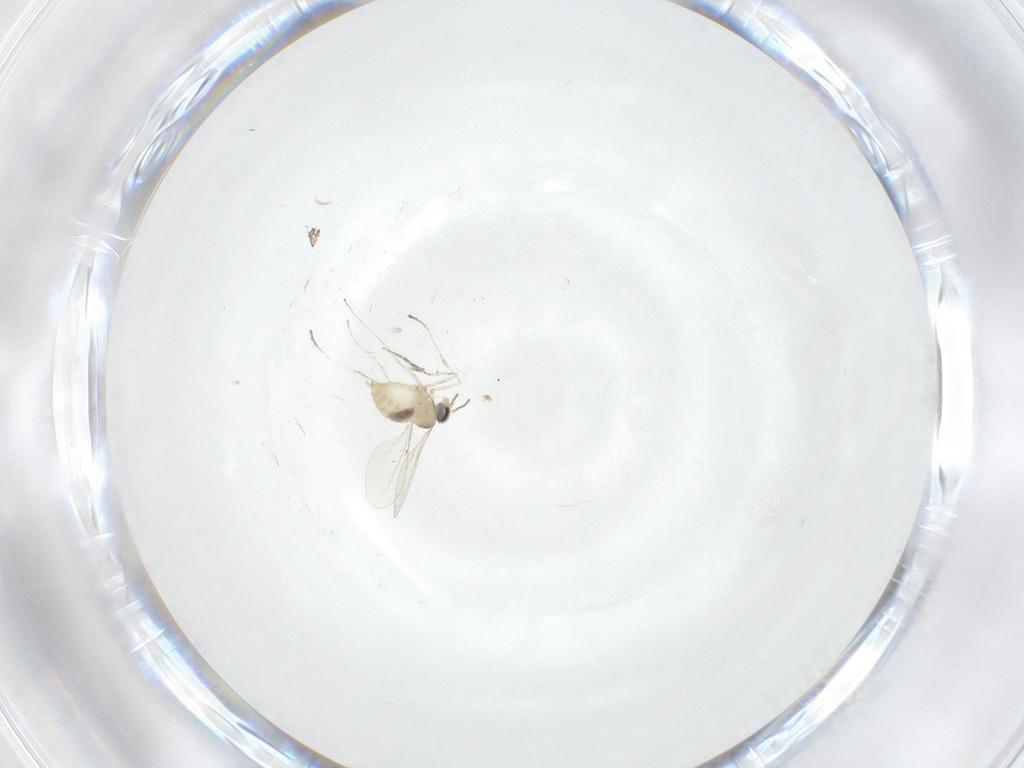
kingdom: Animalia
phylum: Arthropoda
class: Insecta
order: Diptera
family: Cecidomyiidae
